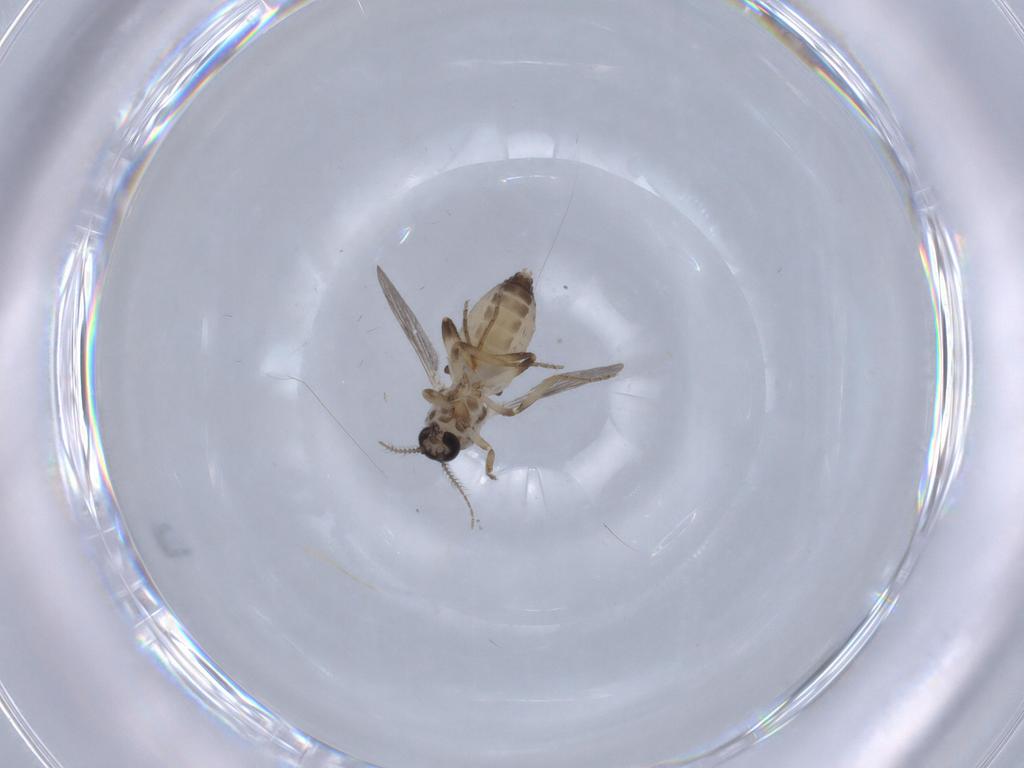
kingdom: Animalia
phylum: Arthropoda
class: Insecta
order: Diptera
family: Ceratopogonidae
